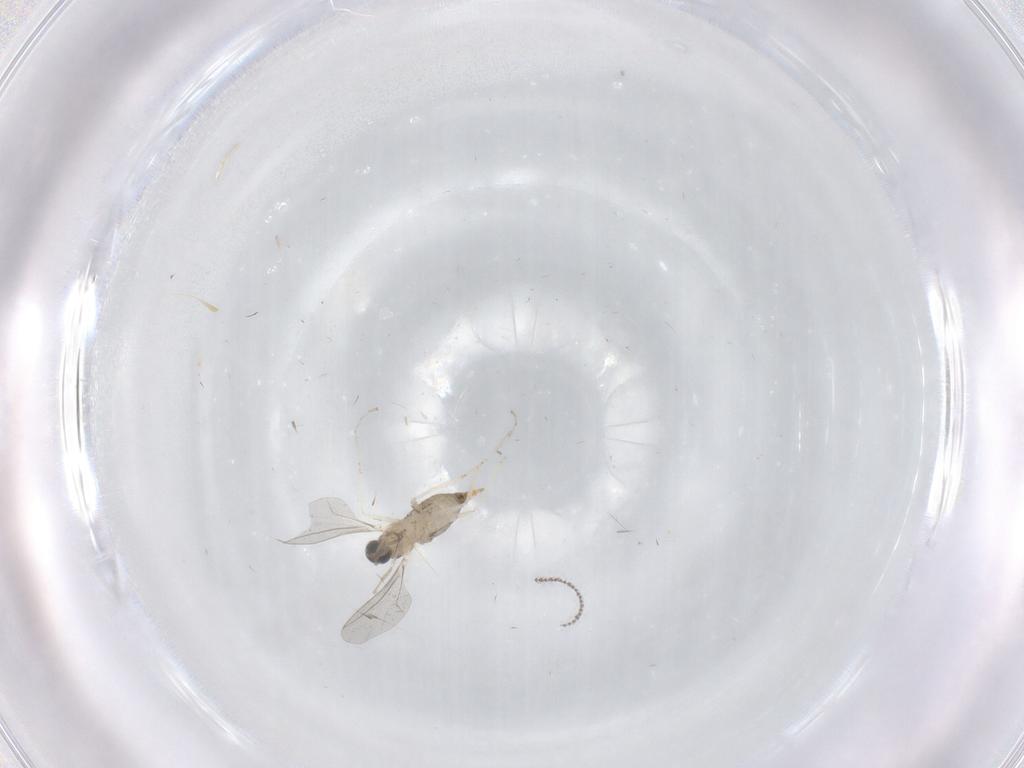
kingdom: Animalia
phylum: Arthropoda
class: Insecta
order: Diptera
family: Cecidomyiidae
